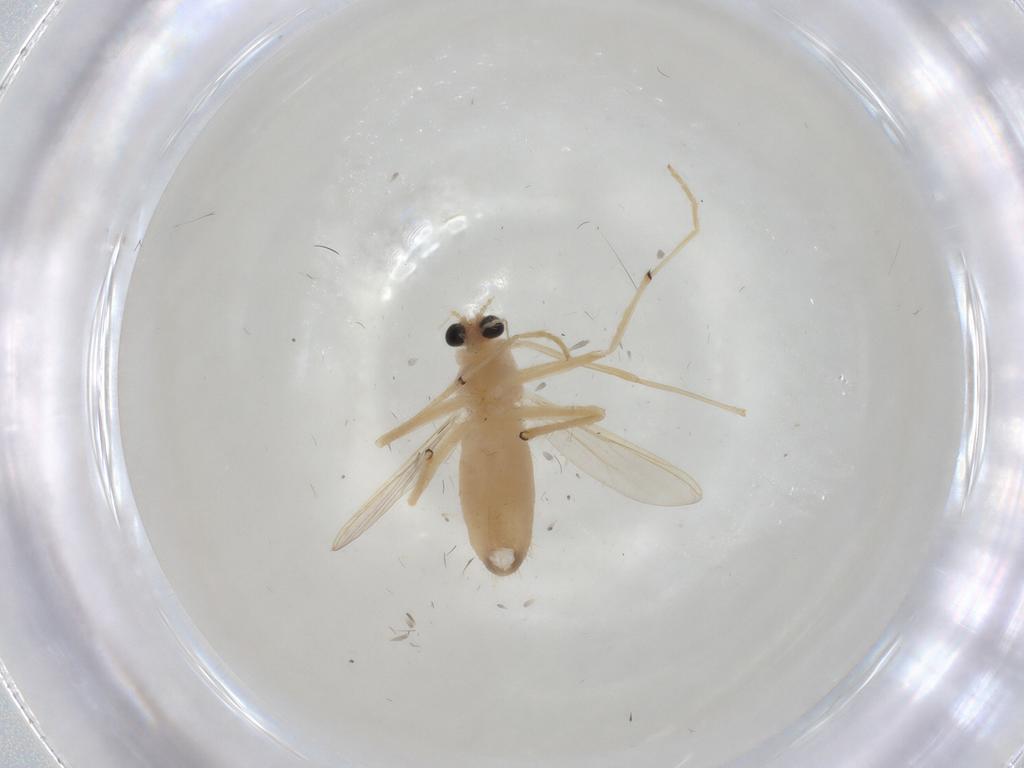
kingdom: Animalia
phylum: Arthropoda
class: Insecta
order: Diptera
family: Chironomidae
